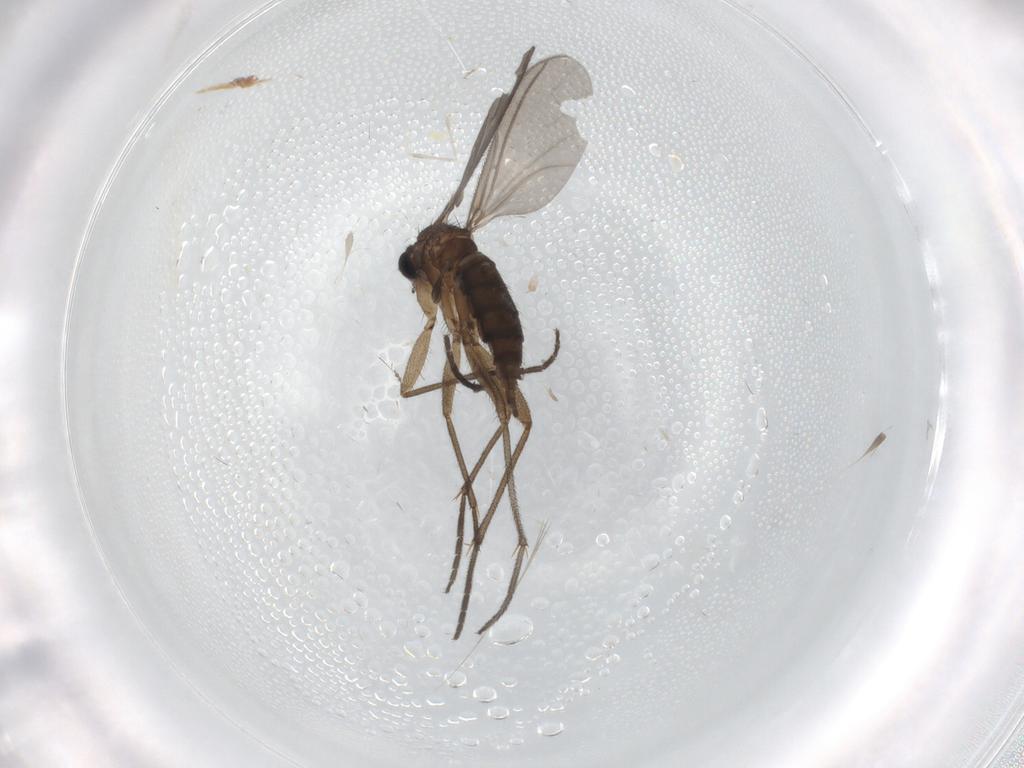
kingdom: Animalia
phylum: Arthropoda
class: Insecta
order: Diptera
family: Cecidomyiidae
